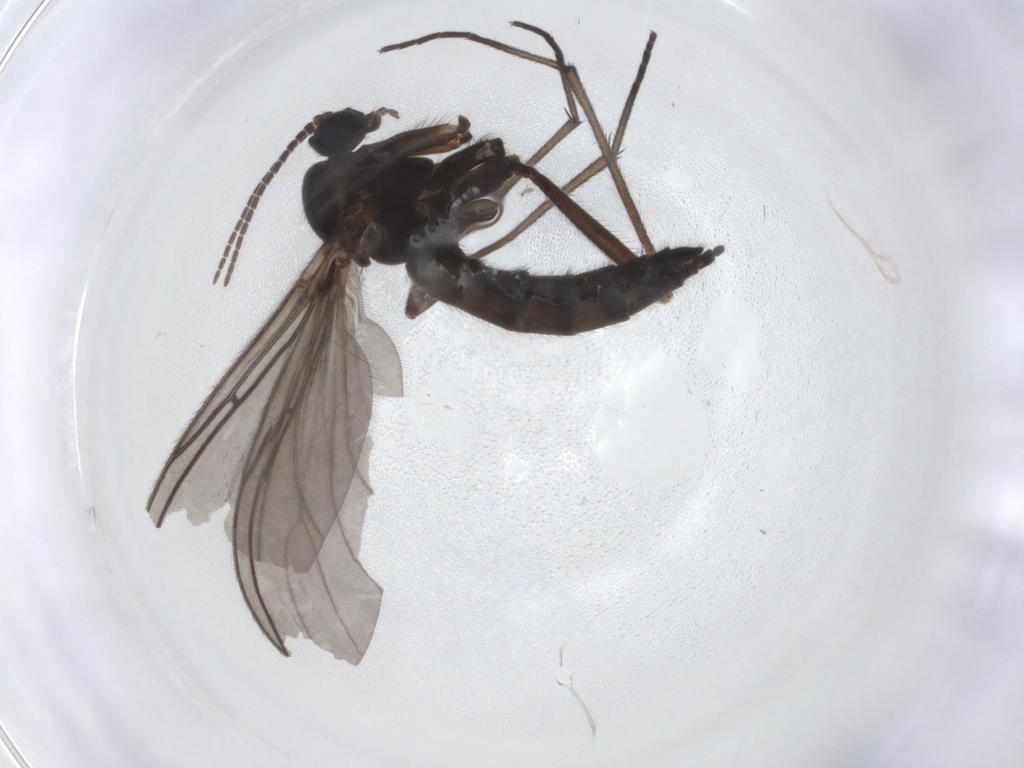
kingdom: Animalia
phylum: Arthropoda
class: Insecta
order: Diptera
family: Sciaridae
